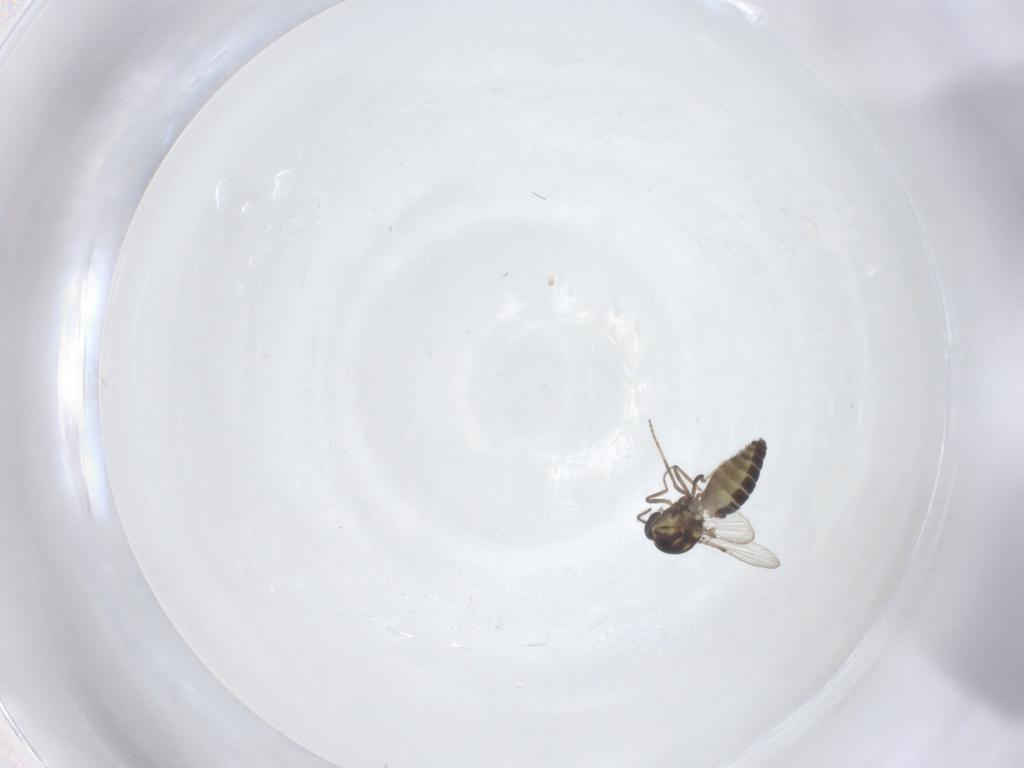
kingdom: Animalia
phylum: Arthropoda
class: Insecta
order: Diptera
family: Ceratopogonidae
